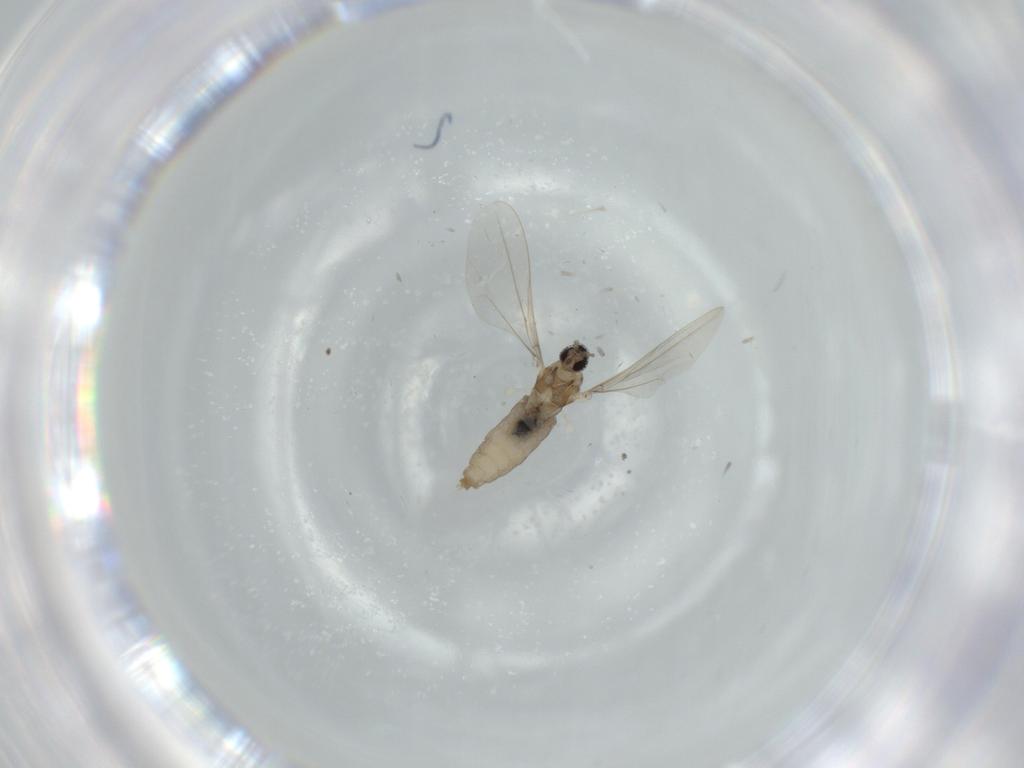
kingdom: Animalia
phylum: Arthropoda
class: Insecta
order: Diptera
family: Cecidomyiidae
